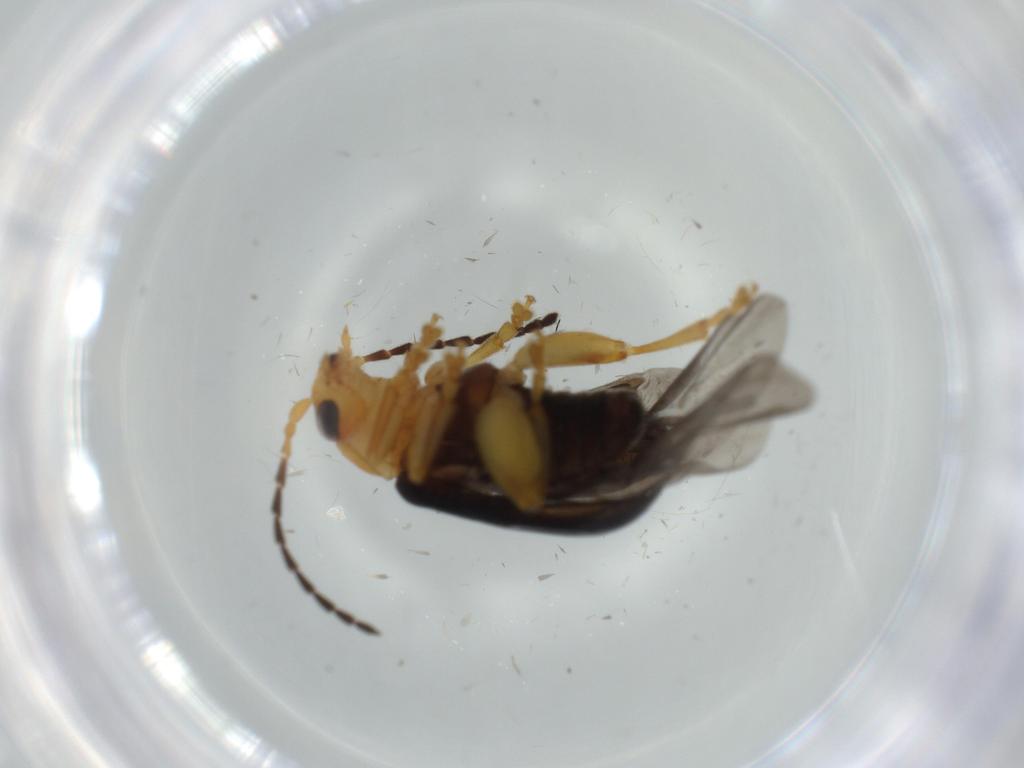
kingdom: Animalia
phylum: Arthropoda
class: Insecta
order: Coleoptera
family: Chrysomelidae
